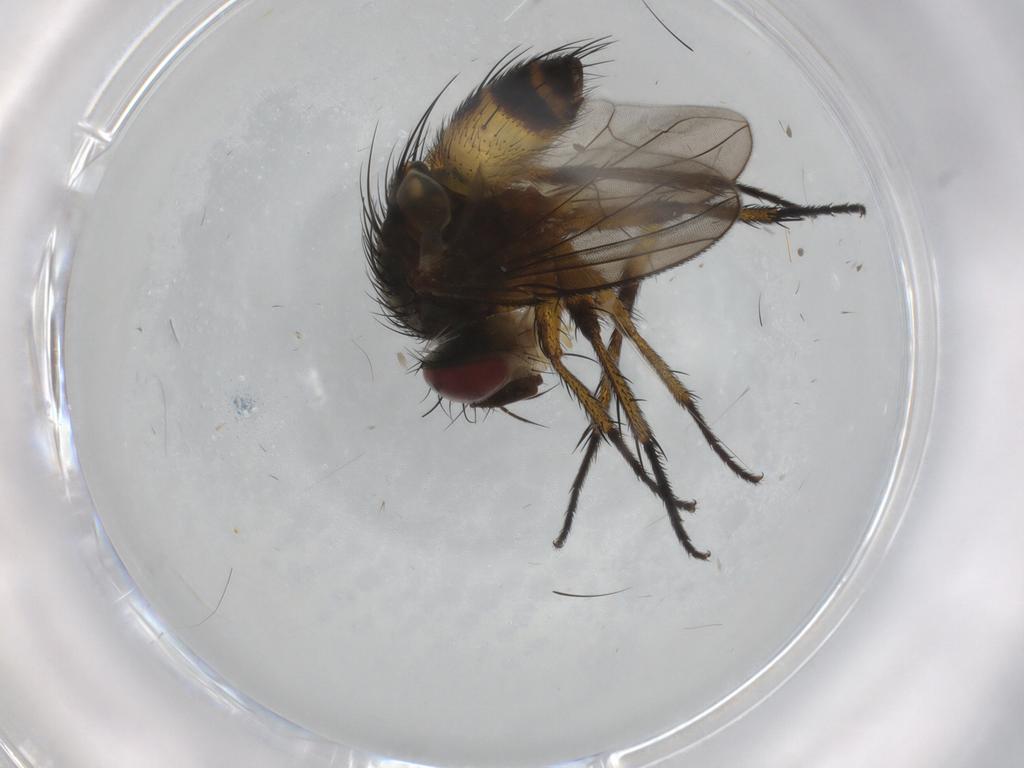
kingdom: Animalia
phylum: Arthropoda
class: Insecta
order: Diptera
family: Tachinidae
